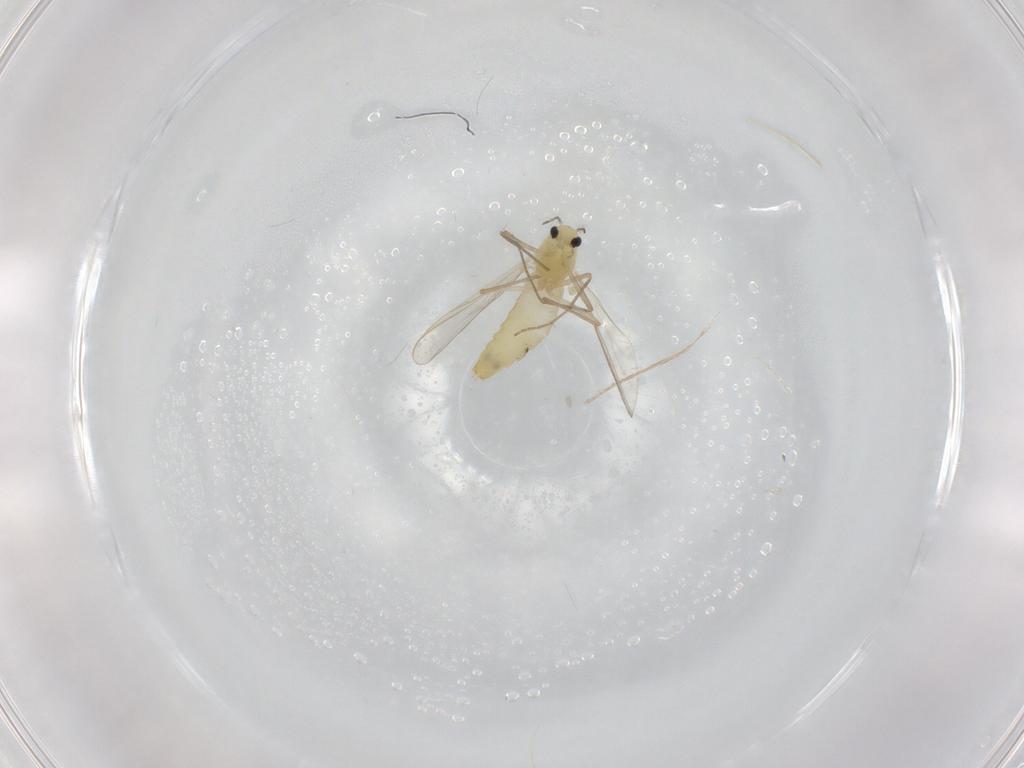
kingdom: Animalia
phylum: Arthropoda
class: Insecta
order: Diptera
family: Chironomidae
